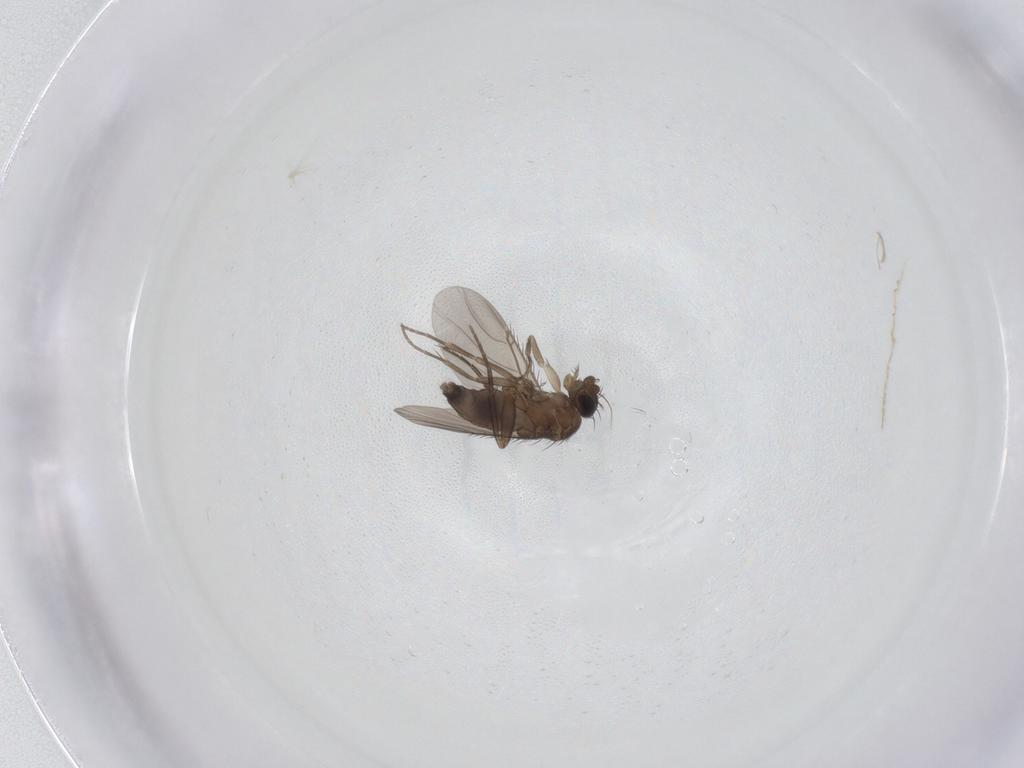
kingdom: Animalia
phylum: Arthropoda
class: Insecta
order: Diptera
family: Phoridae
